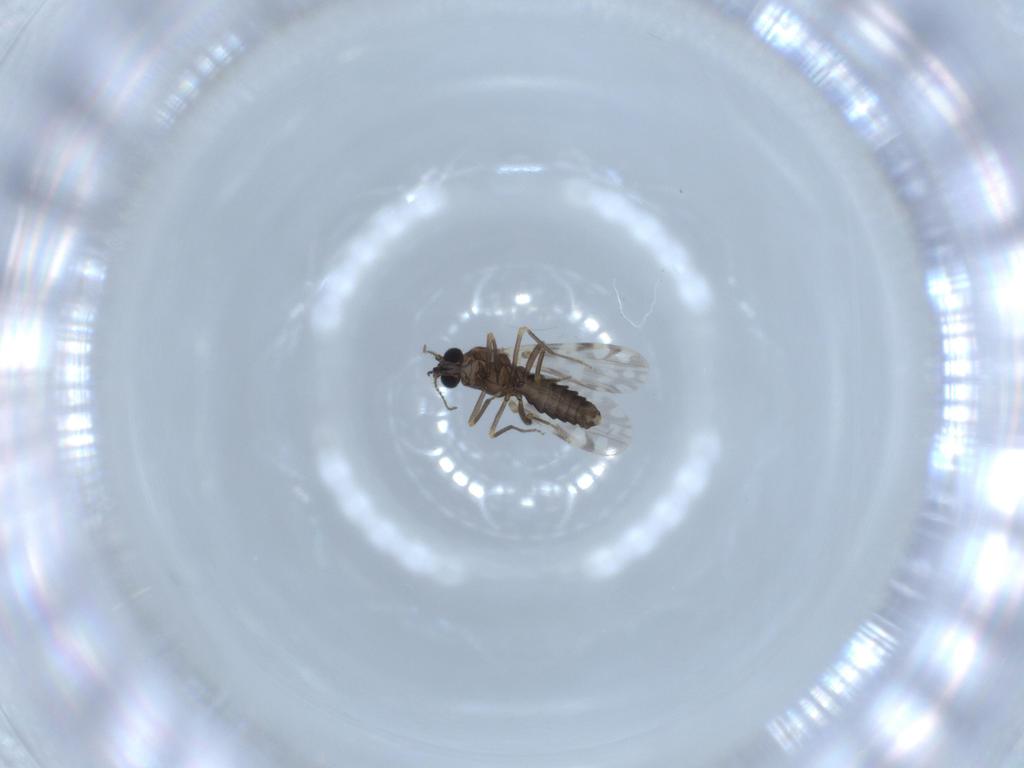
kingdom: Animalia
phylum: Arthropoda
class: Insecta
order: Diptera
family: Ceratopogonidae
